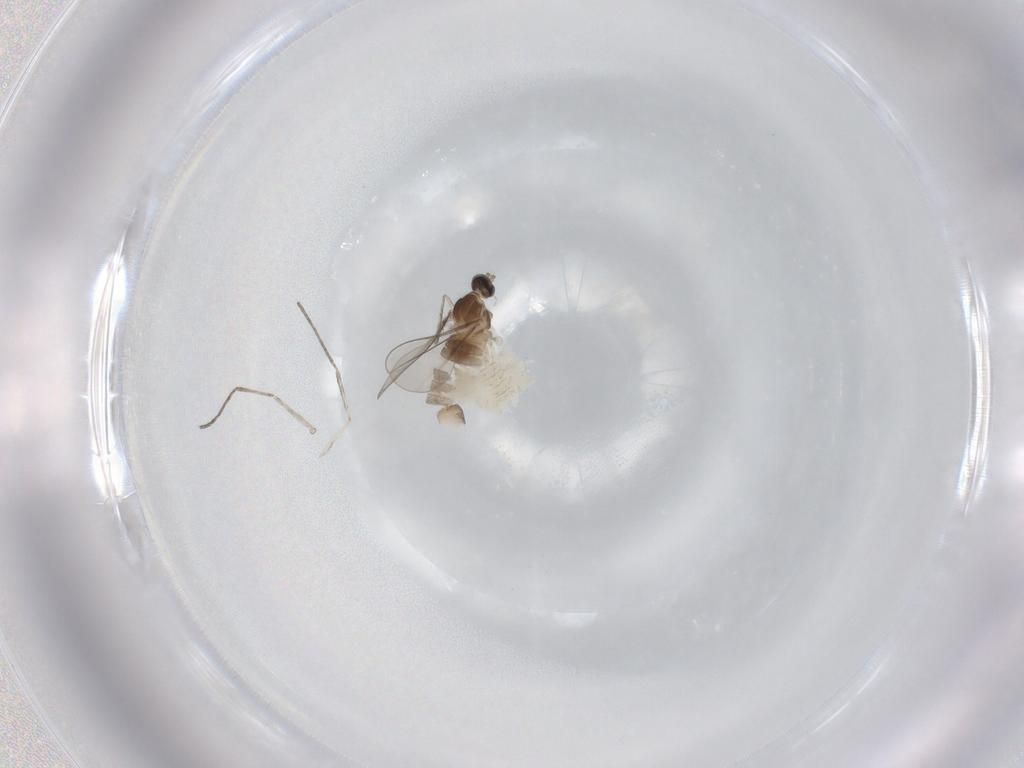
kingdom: Animalia
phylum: Arthropoda
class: Insecta
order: Diptera
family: Cecidomyiidae
